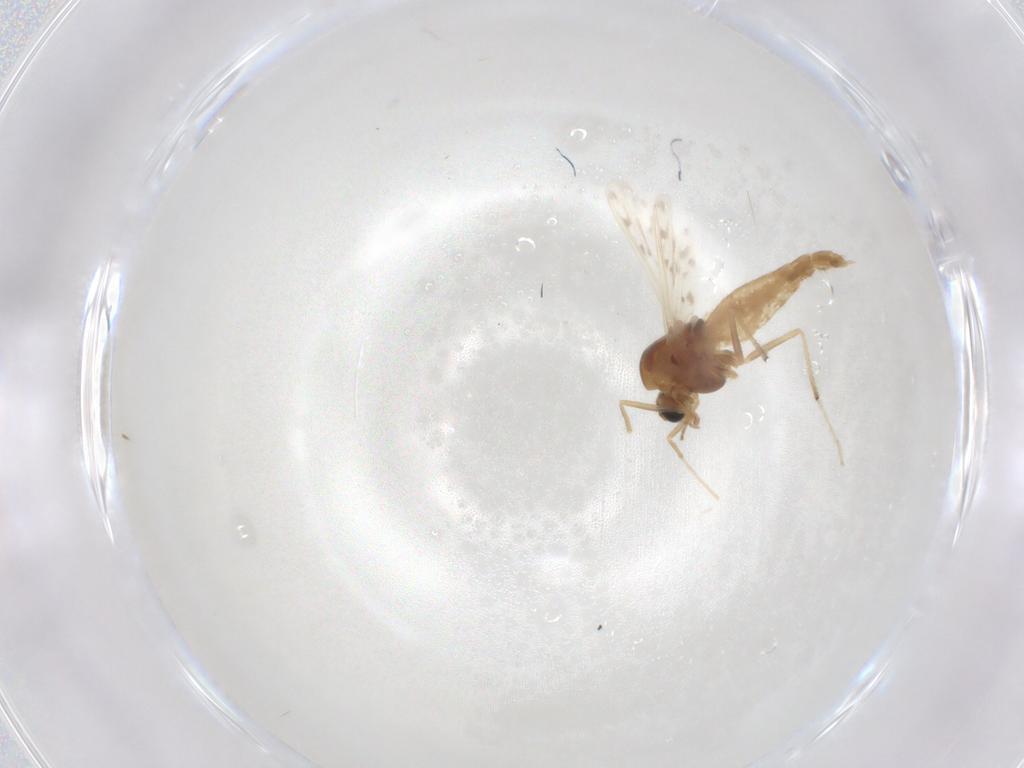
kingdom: Animalia
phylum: Arthropoda
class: Insecta
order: Diptera
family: Chironomidae
